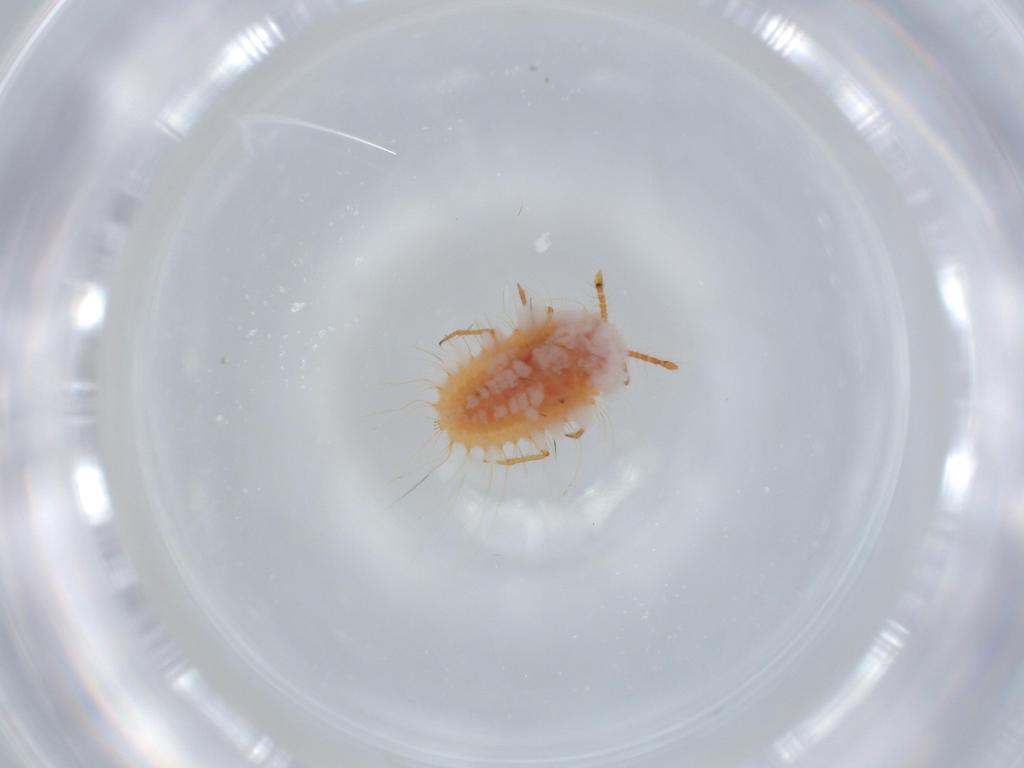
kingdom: Animalia
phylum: Arthropoda
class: Insecta
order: Hemiptera
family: Coccoidea_incertae_sedis
